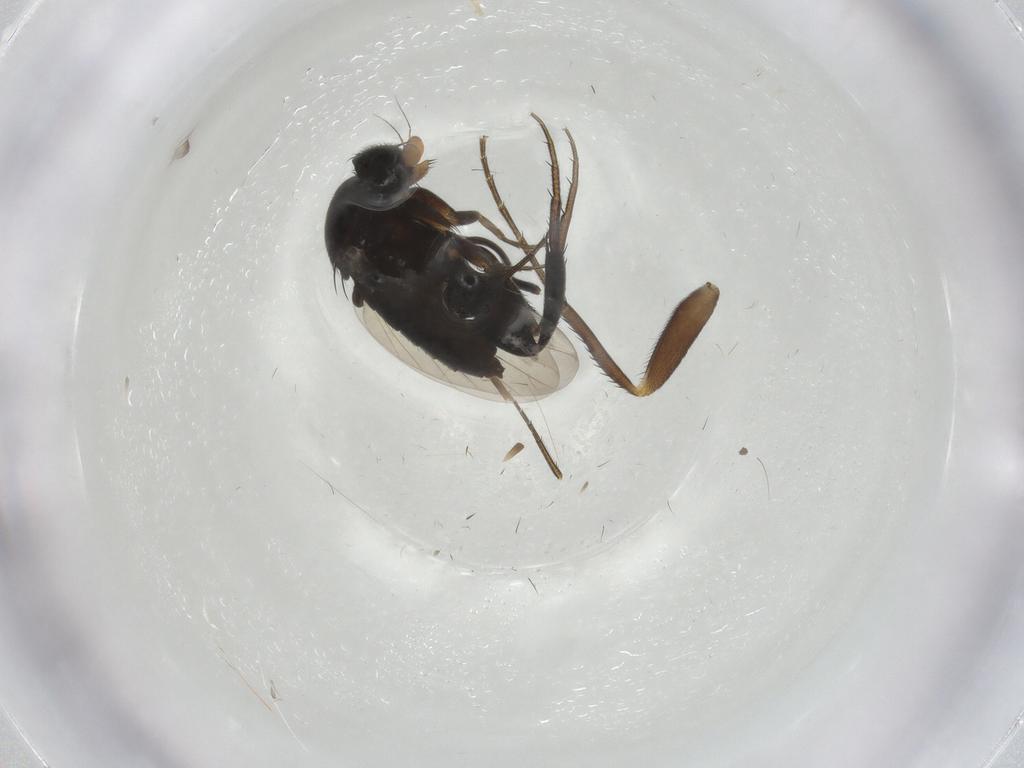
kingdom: Animalia
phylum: Arthropoda
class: Insecta
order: Diptera
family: Phoridae
